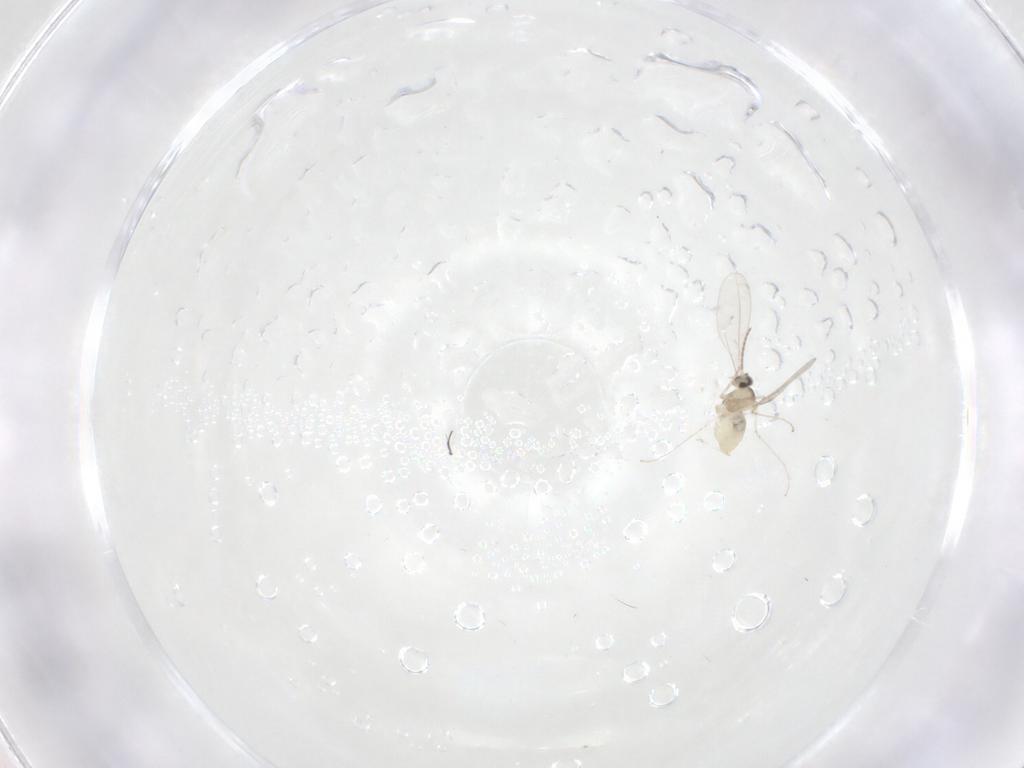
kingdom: Animalia
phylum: Arthropoda
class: Insecta
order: Diptera
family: Cecidomyiidae
